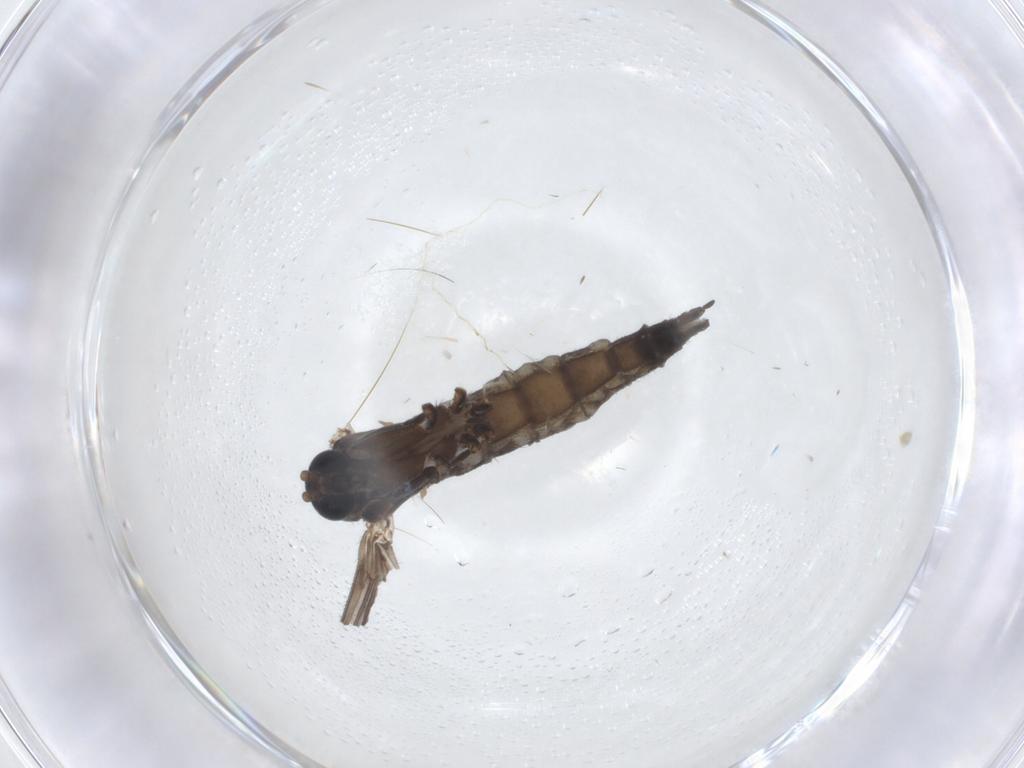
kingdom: Animalia
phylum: Arthropoda
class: Insecta
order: Diptera
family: Sciaridae
